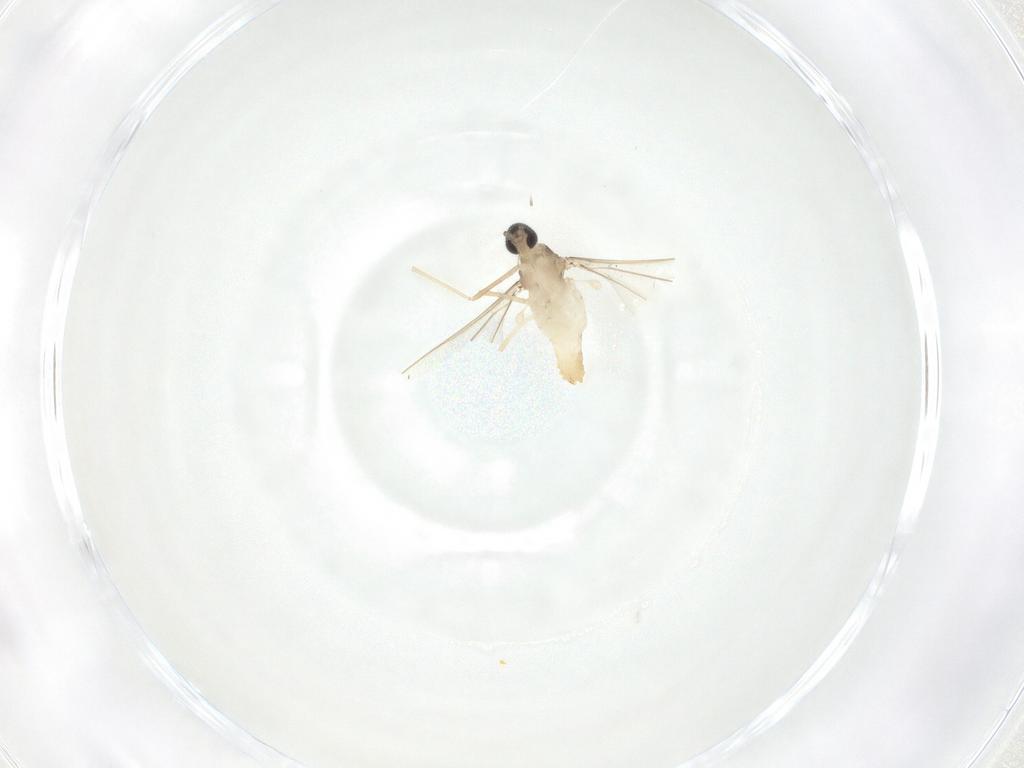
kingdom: Animalia
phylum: Arthropoda
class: Insecta
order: Diptera
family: Cecidomyiidae
